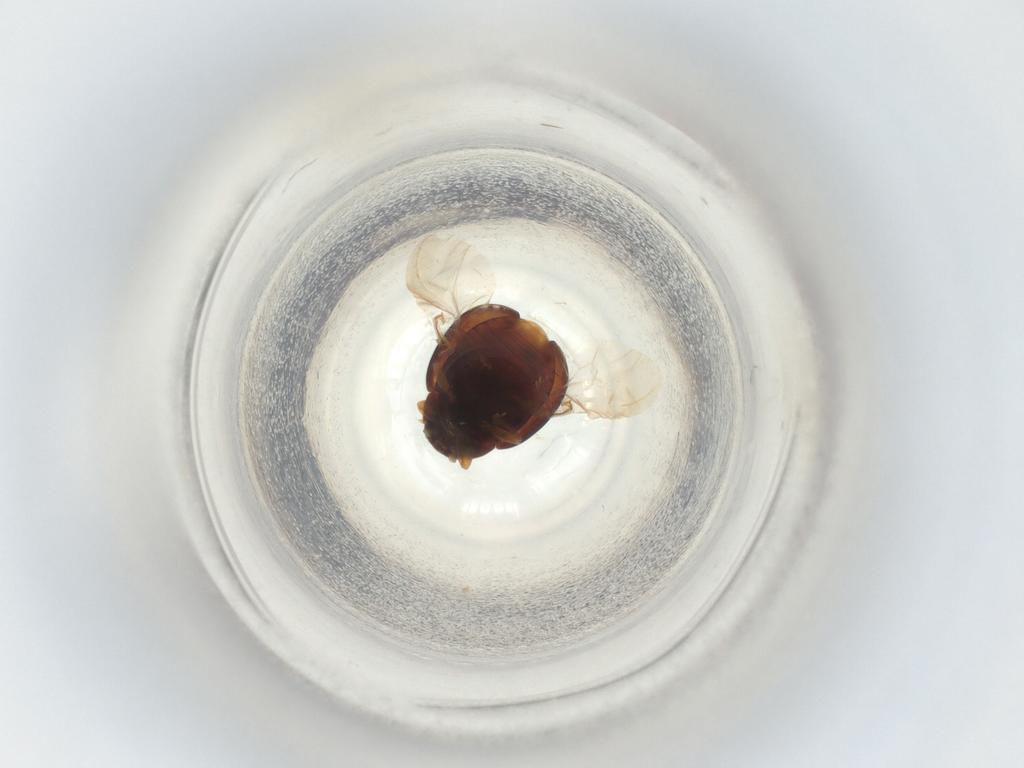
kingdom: Animalia
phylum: Arthropoda
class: Insecta
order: Coleoptera
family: Coccinellidae
